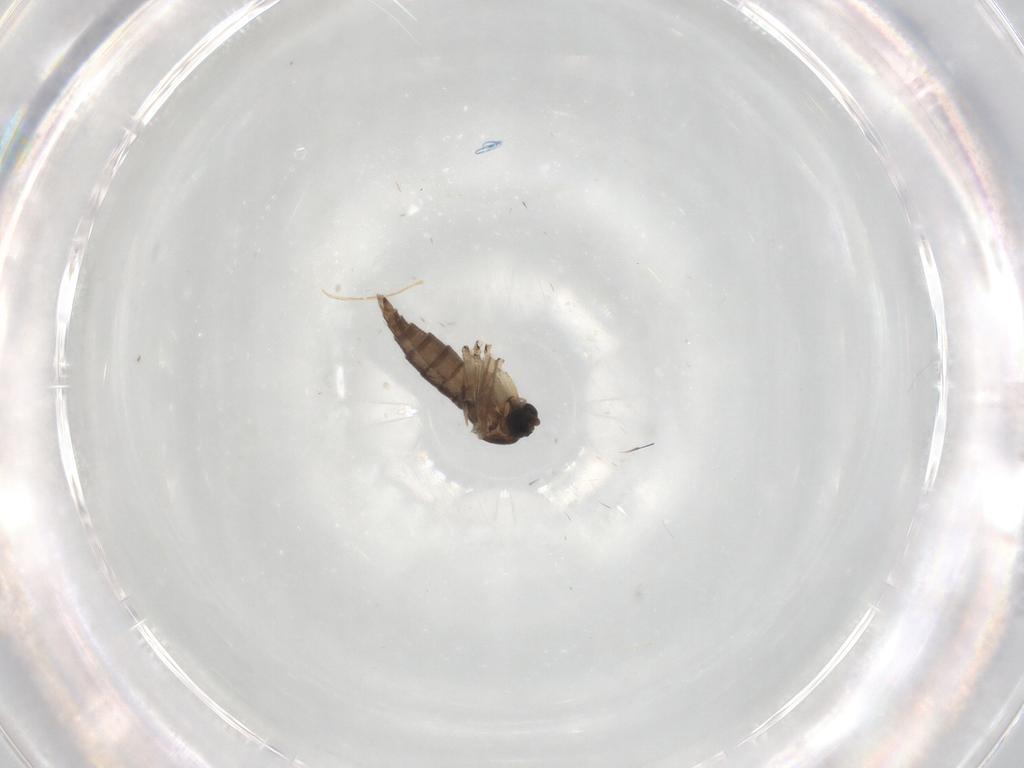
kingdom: Animalia
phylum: Arthropoda
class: Insecta
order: Diptera
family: Sciaridae
